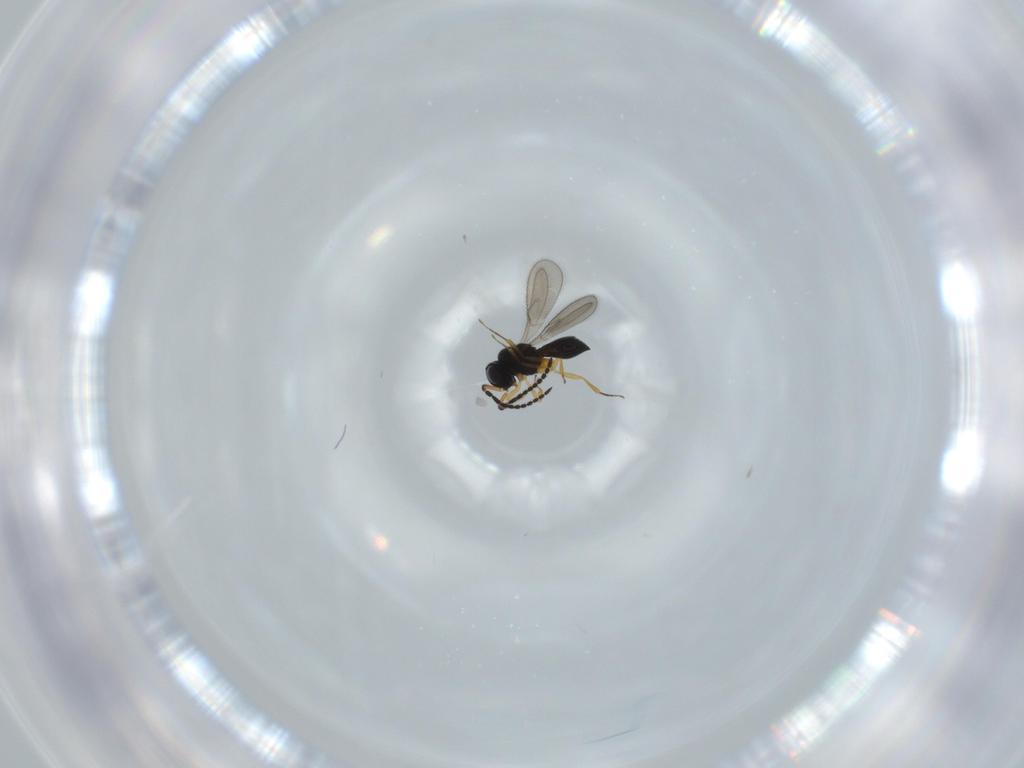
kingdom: Animalia
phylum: Arthropoda
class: Insecta
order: Hymenoptera
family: Scelionidae
